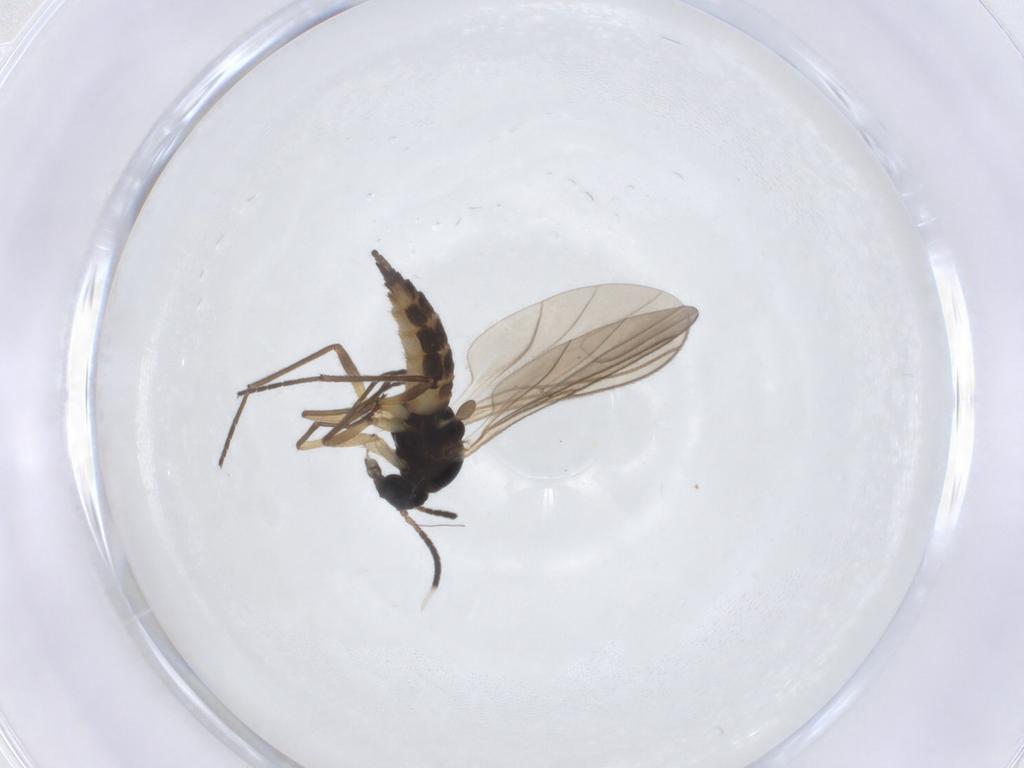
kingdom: Animalia
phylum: Arthropoda
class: Insecta
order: Diptera
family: Sciaridae
